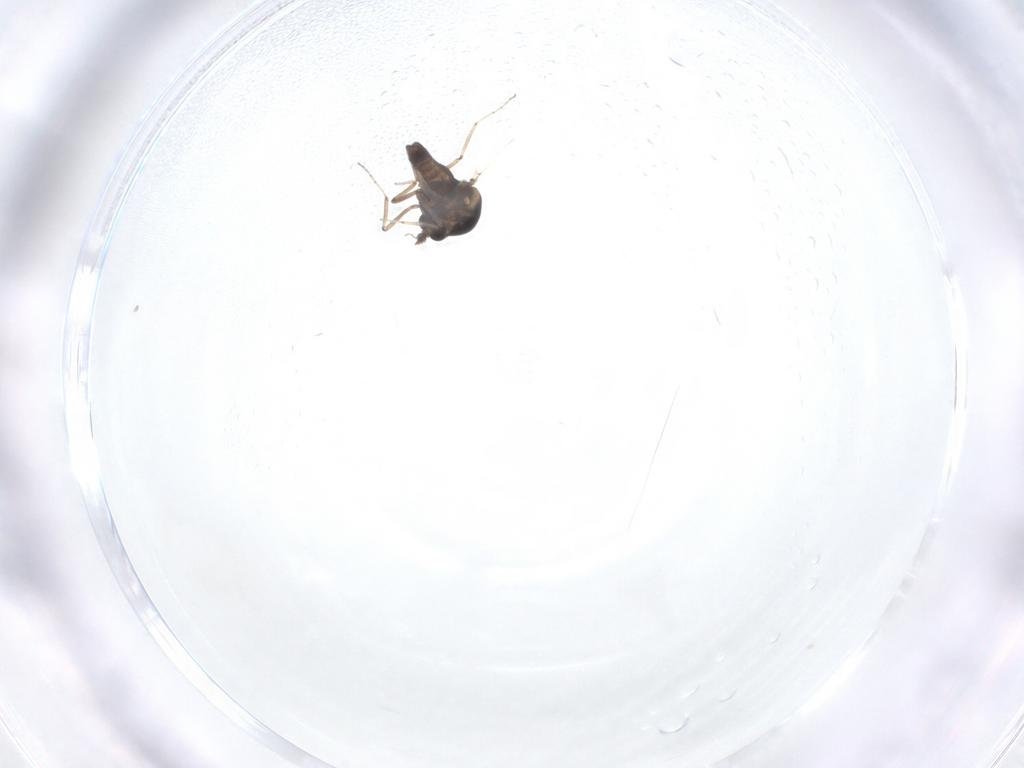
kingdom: Animalia
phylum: Arthropoda
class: Insecta
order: Diptera
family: Ceratopogonidae
